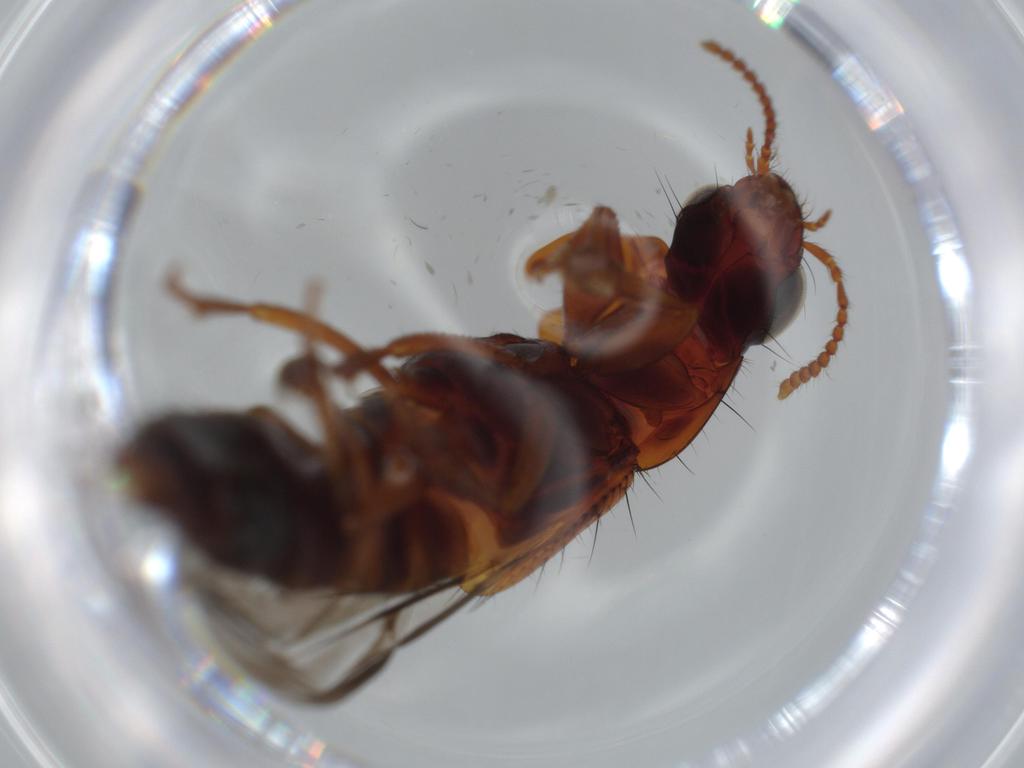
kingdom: Animalia
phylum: Arthropoda
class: Insecta
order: Coleoptera
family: Staphylinidae
